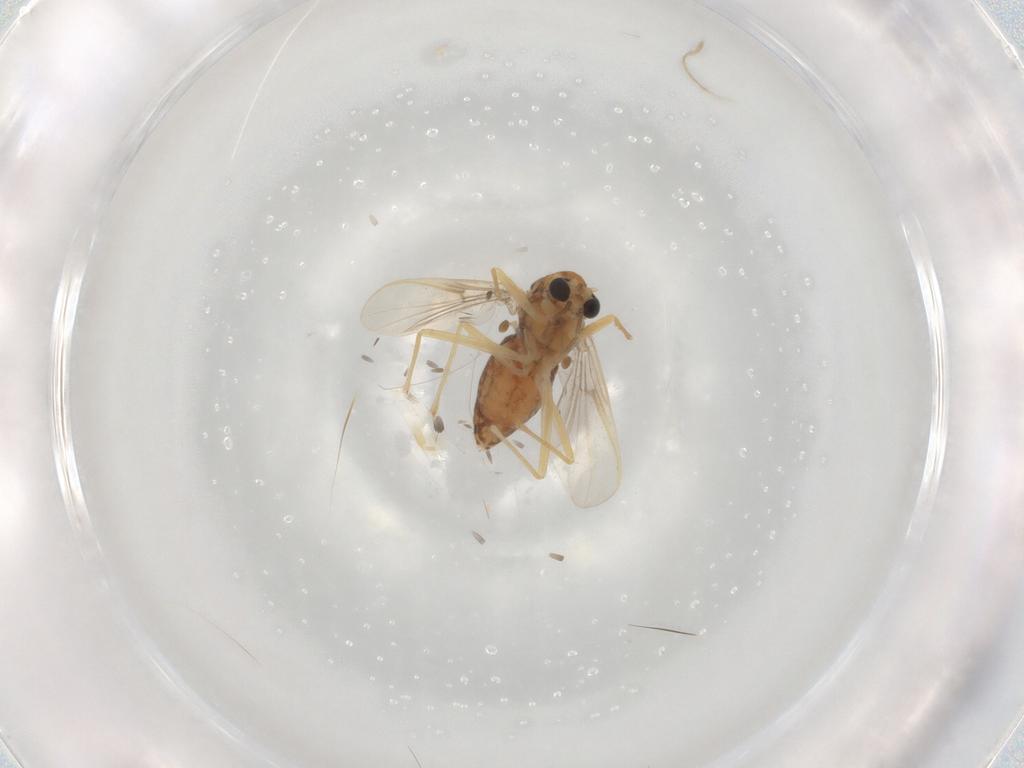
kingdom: Animalia
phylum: Arthropoda
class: Insecta
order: Diptera
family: Chironomidae
